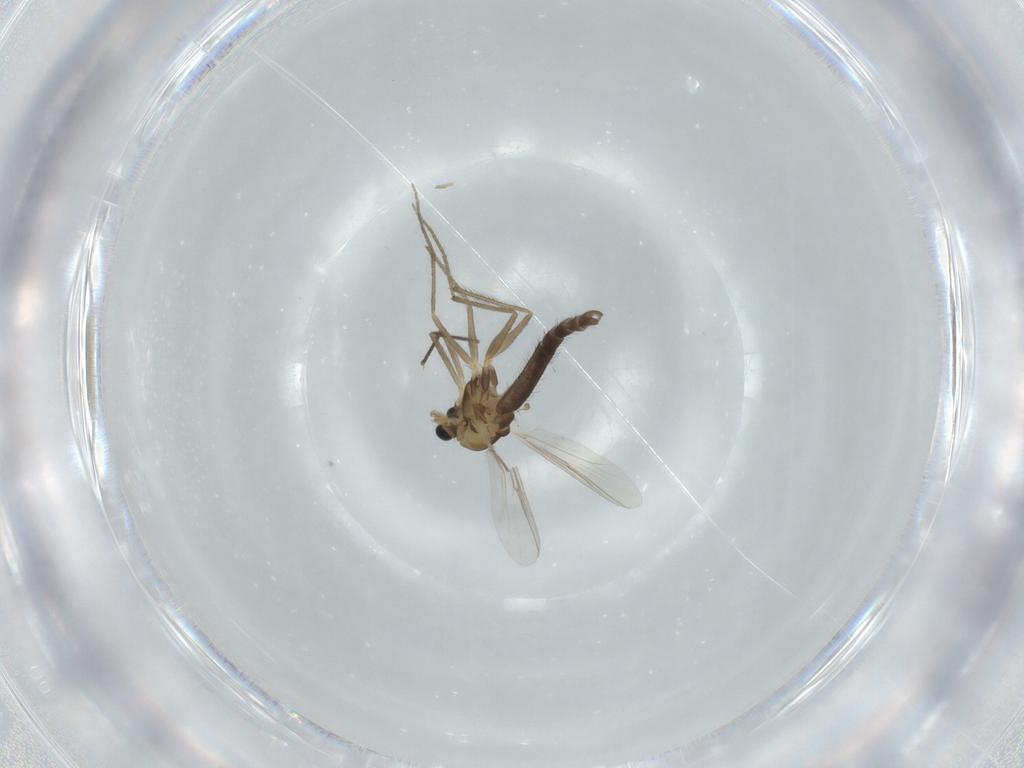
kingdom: Animalia
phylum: Arthropoda
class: Insecta
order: Diptera
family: Chironomidae
